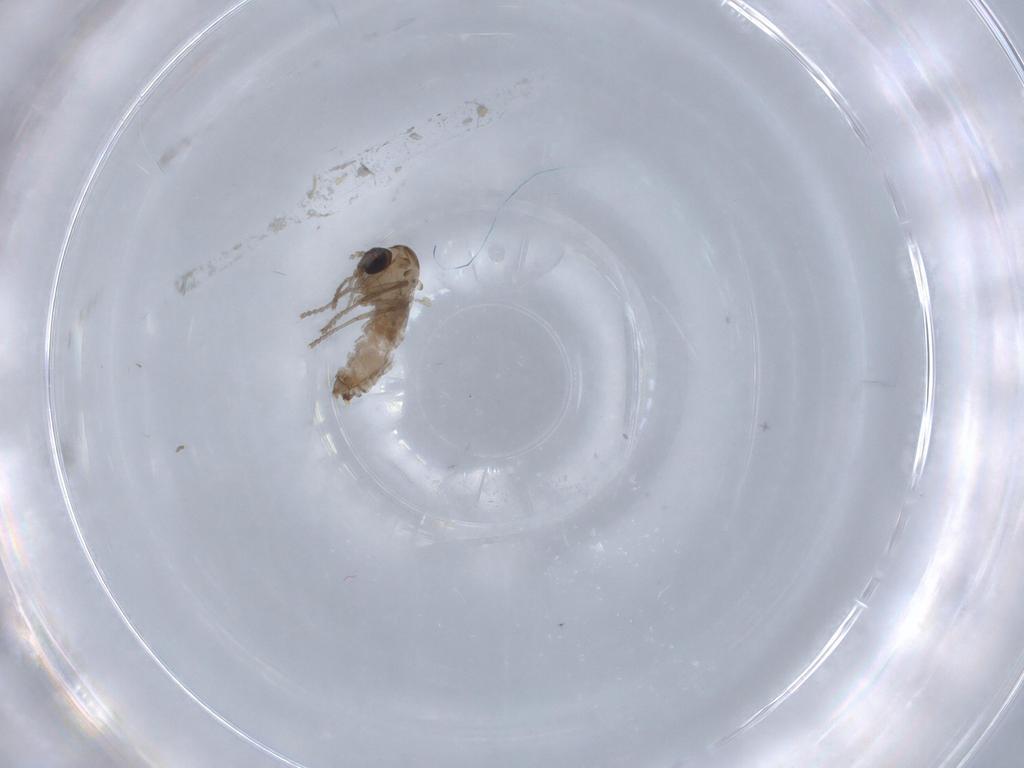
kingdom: Animalia
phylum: Arthropoda
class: Insecta
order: Diptera
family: Psychodidae
